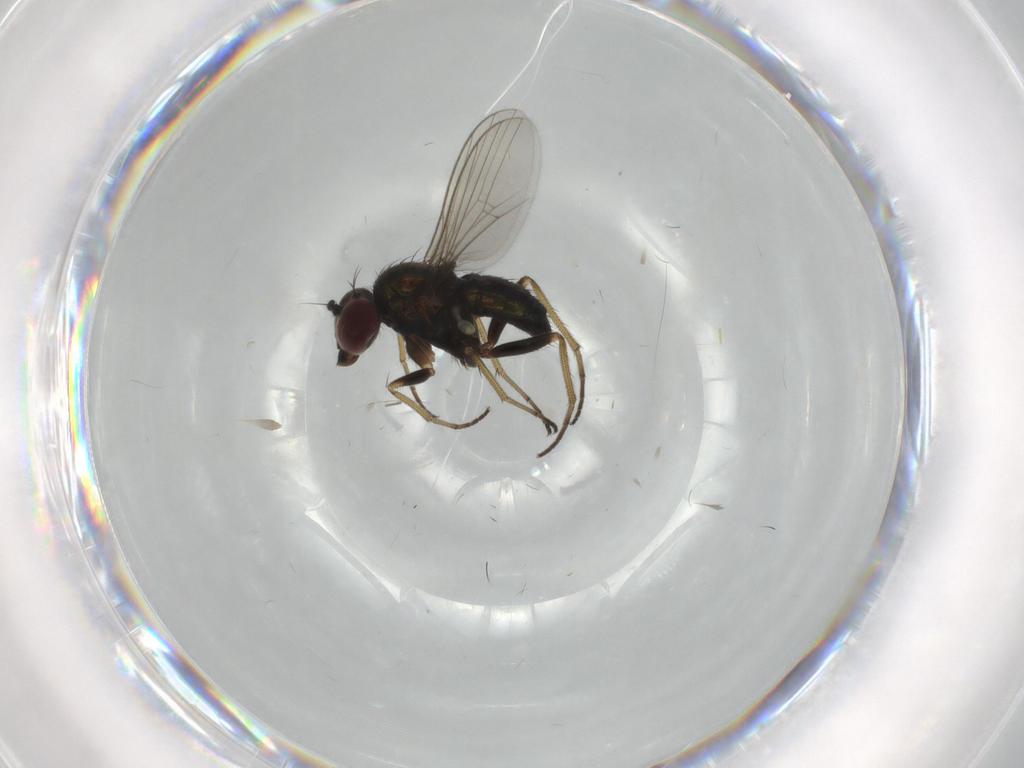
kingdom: Animalia
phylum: Arthropoda
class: Insecta
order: Diptera
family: Dolichopodidae
